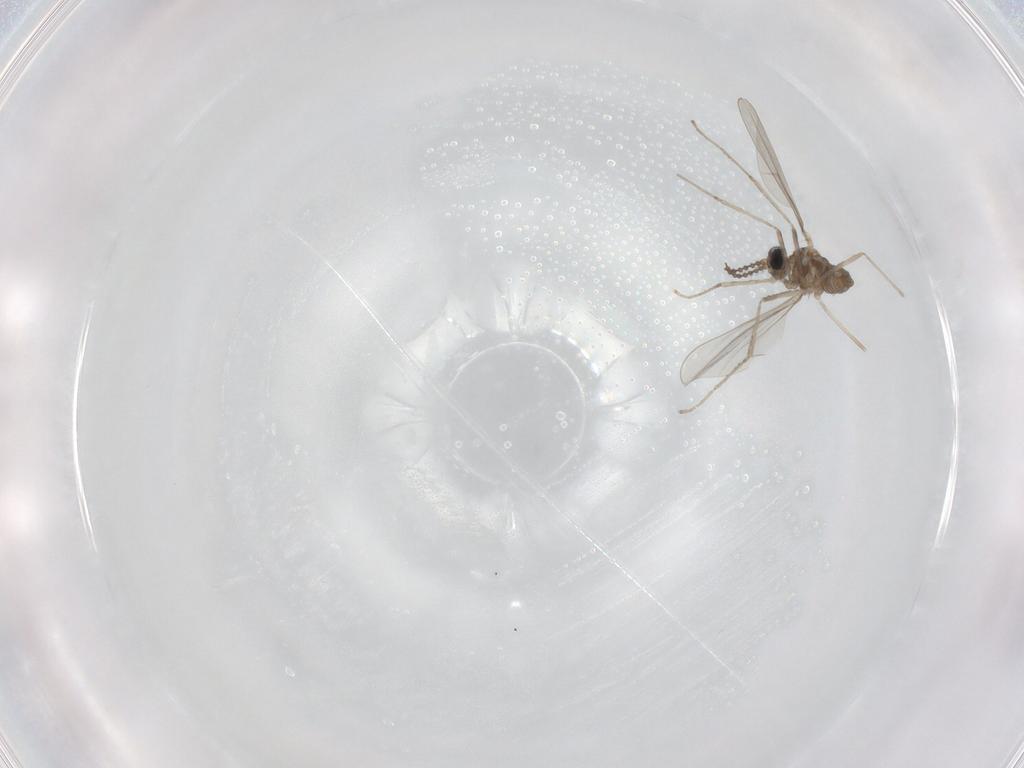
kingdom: Animalia
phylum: Arthropoda
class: Insecta
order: Diptera
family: Cecidomyiidae
